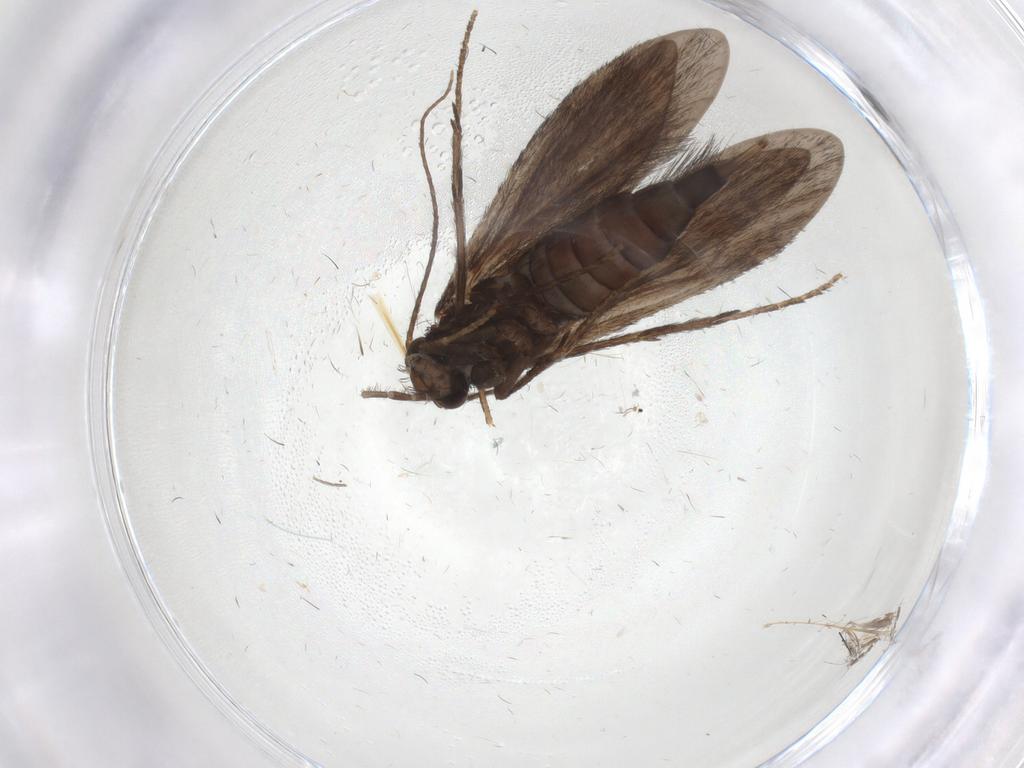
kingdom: Animalia
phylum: Arthropoda
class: Insecta
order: Trichoptera
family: Xiphocentronidae
